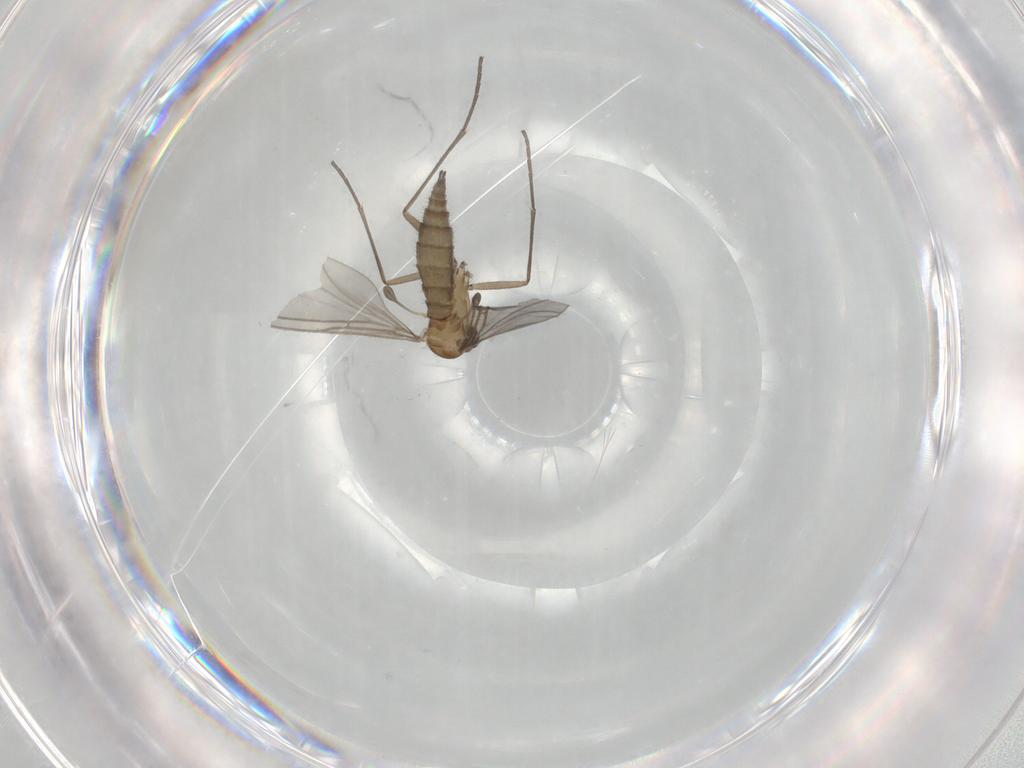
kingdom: Animalia
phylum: Arthropoda
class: Insecta
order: Diptera
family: Sciaridae
